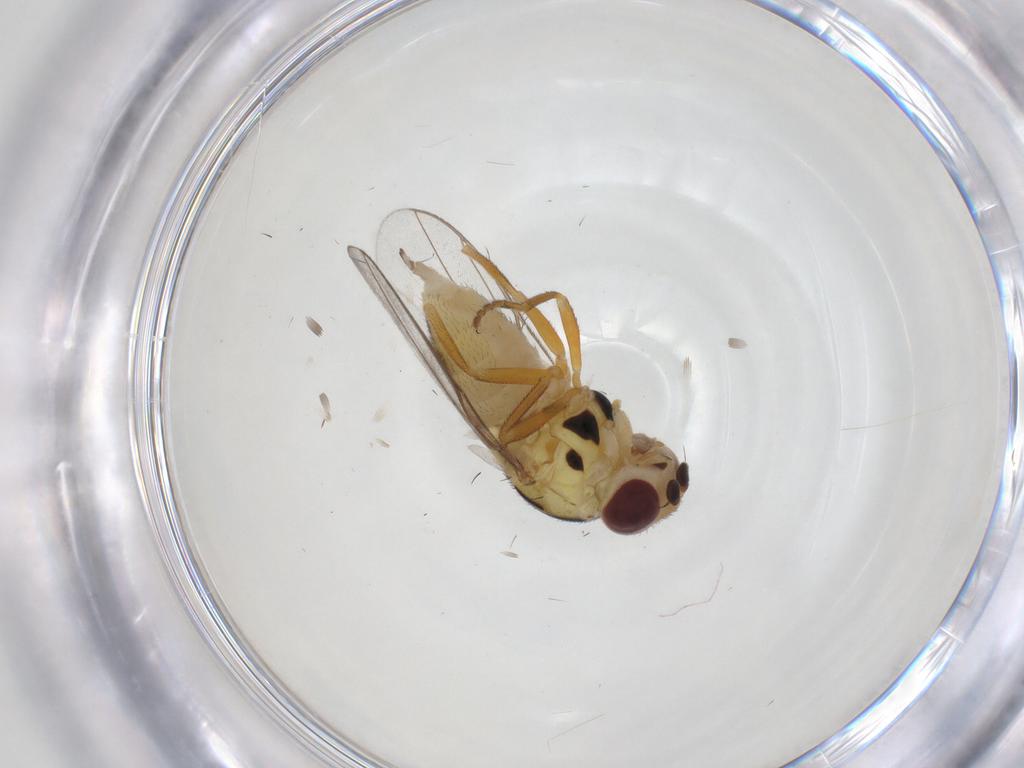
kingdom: Animalia
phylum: Arthropoda
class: Insecta
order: Diptera
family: Chloropidae
